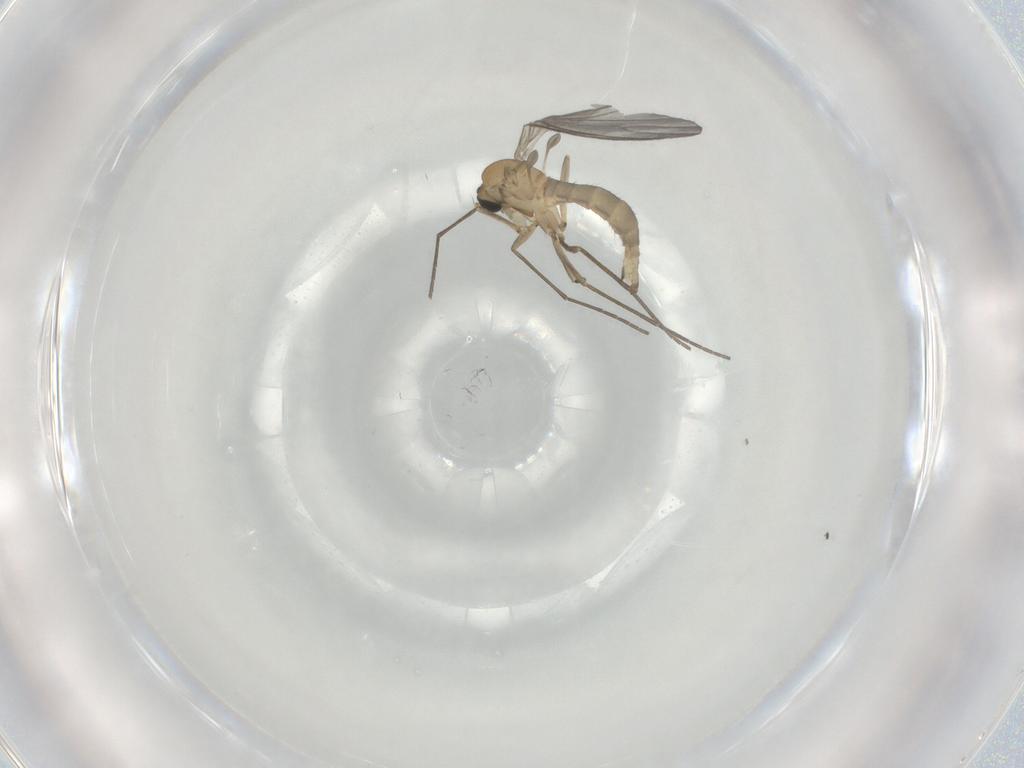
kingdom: Animalia
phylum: Arthropoda
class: Insecta
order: Diptera
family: Sciaridae
